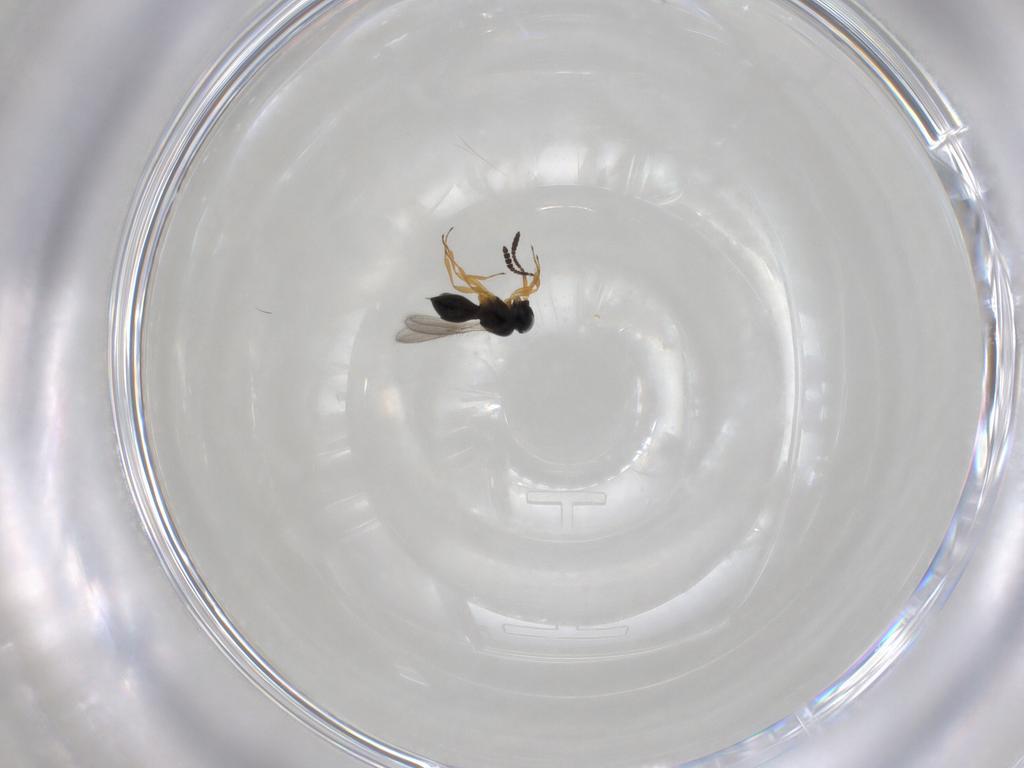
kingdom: Animalia
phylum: Arthropoda
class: Insecta
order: Hymenoptera
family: Scelionidae
